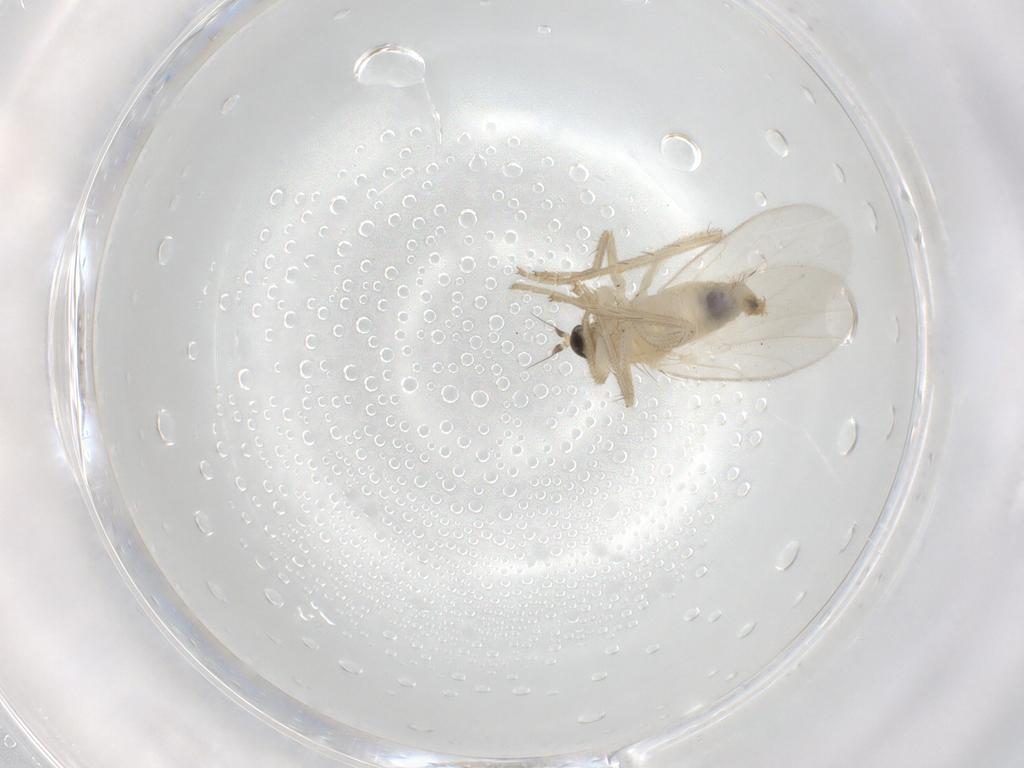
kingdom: Animalia
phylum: Arthropoda
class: Insecta
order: Diptera
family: Hybotidae
